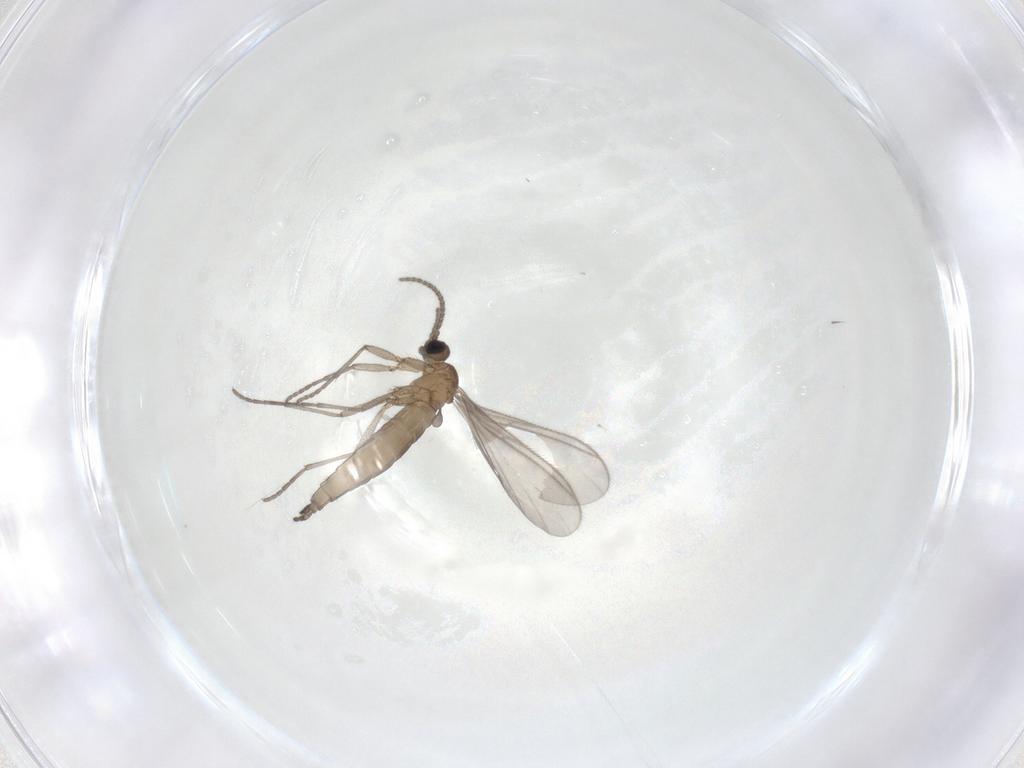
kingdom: Animalia
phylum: Arthropoda
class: Insecta
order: Diptera
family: Sciaridae
